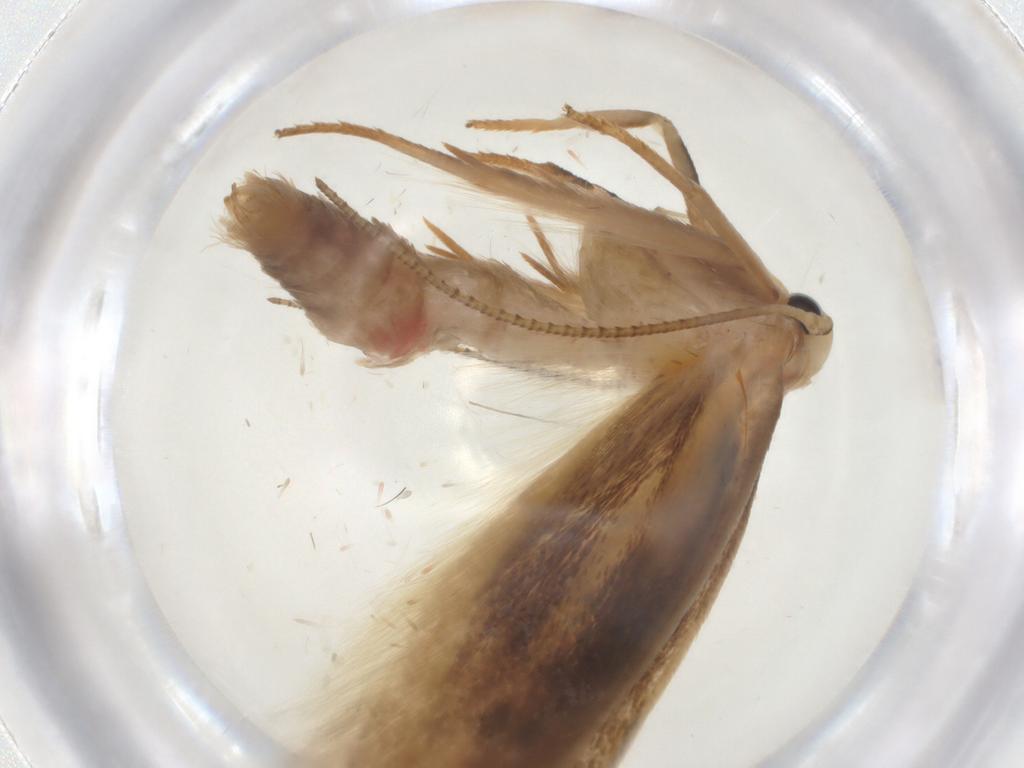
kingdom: Animalia
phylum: Arthropoda
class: Insecta
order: Lepidoptera
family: Geometridae
